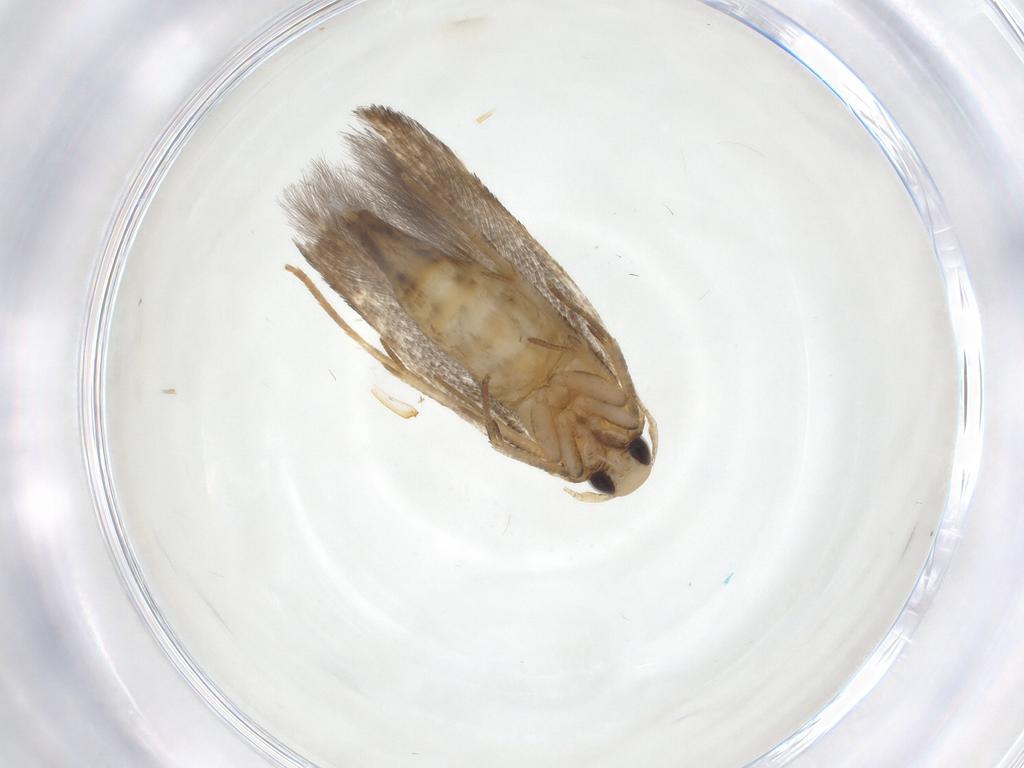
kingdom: Animalia
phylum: Arthropoda
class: Insecta
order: Lepidoptera
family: Cosmopterigidae
